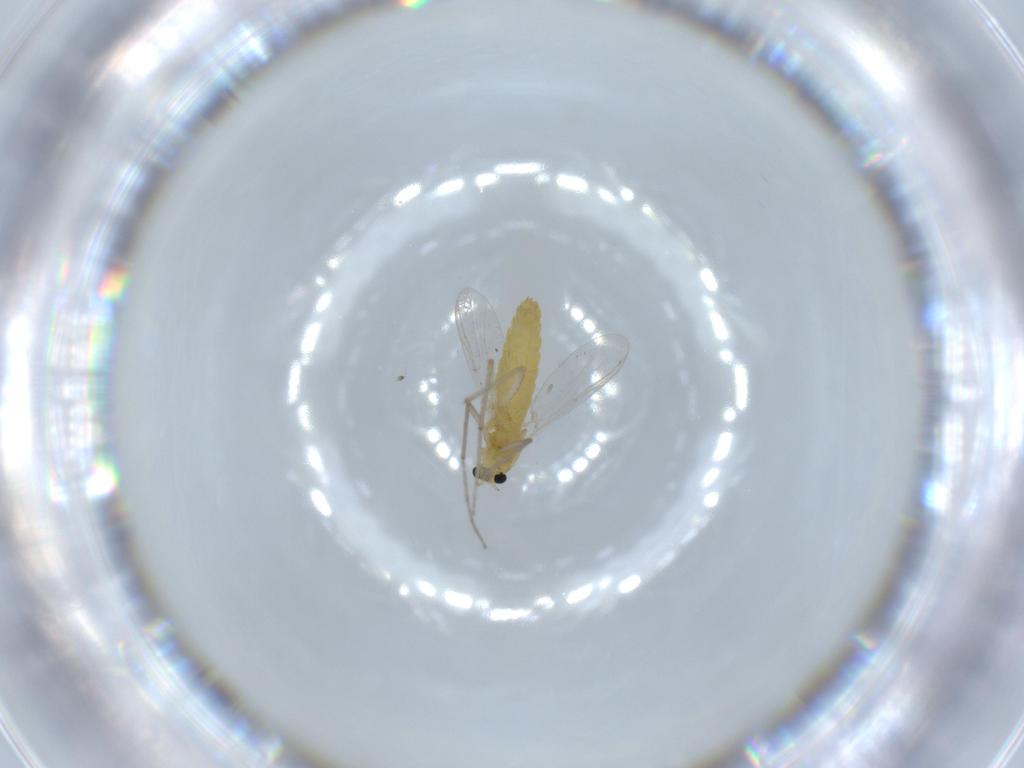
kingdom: Animalia
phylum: Arthropoda
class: Insecta
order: Diptera
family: Chironomidae
